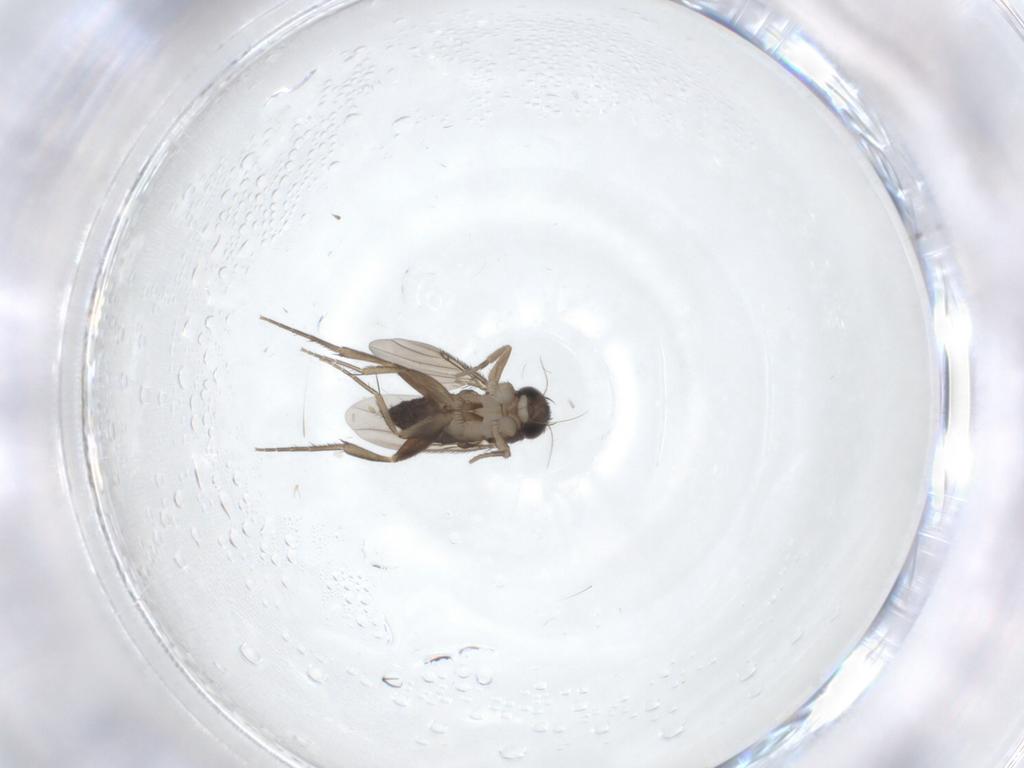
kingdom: Animalia
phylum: Arthropoda
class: Insecta
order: Diptera
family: Phoridae
